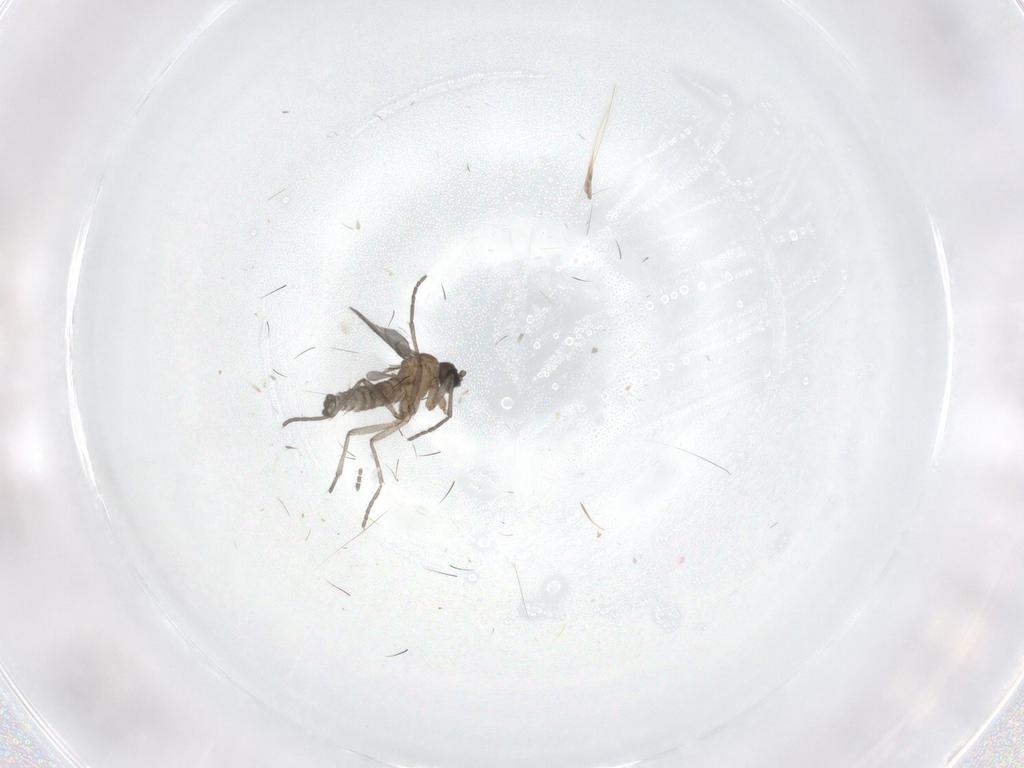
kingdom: Animalia
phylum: Arthropoda
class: Insecta
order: Diptera
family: Sciaridae
